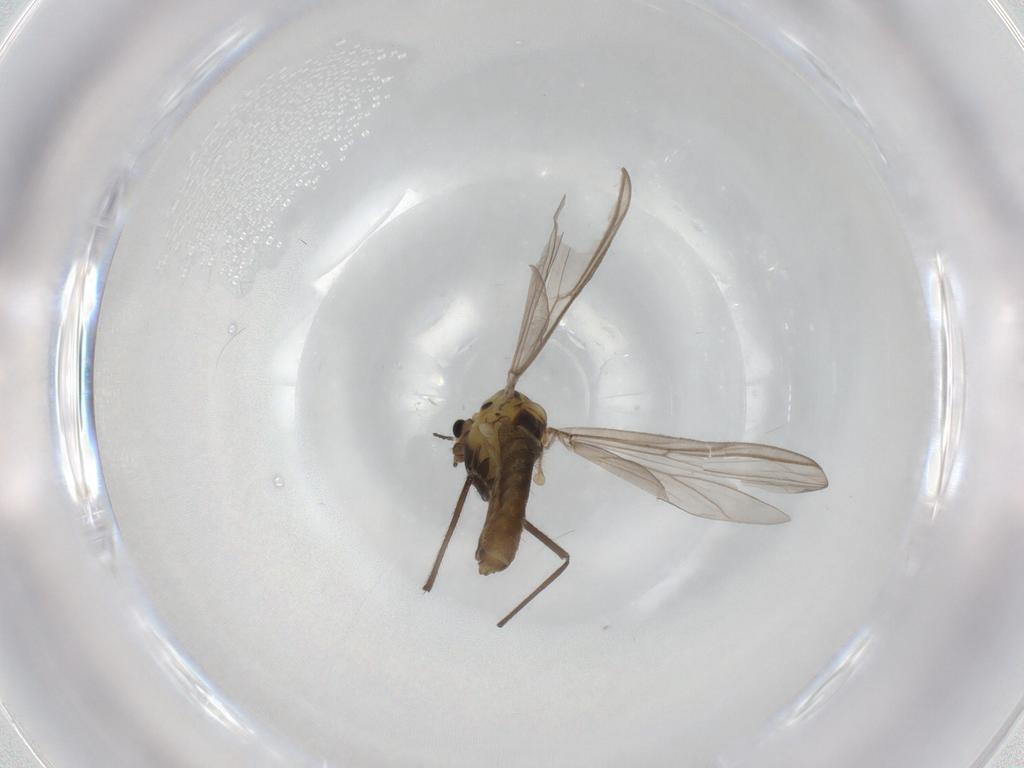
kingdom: Animalia
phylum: Arthropoda
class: Insecta
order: Diptera
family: Chironomidae
